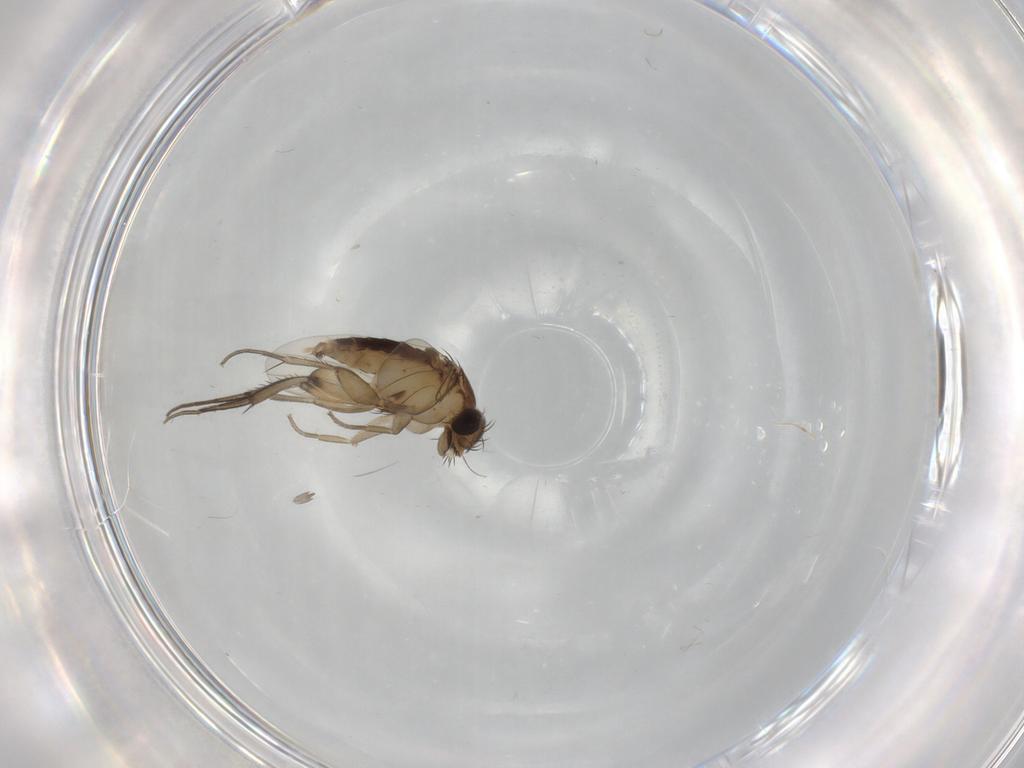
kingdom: Animalia
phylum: Arthropoda
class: Insecta
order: Diptera
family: Phoridae
